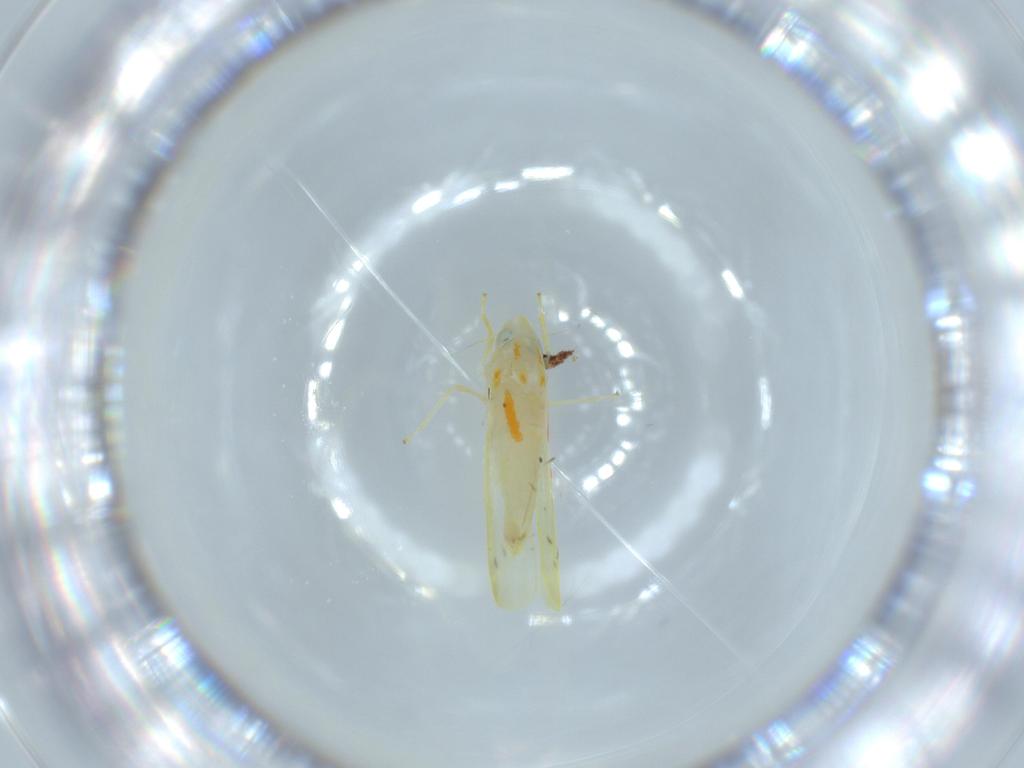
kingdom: Animalia
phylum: Arthropoda
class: Insecta
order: Hemiptera
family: Cicadellidae
